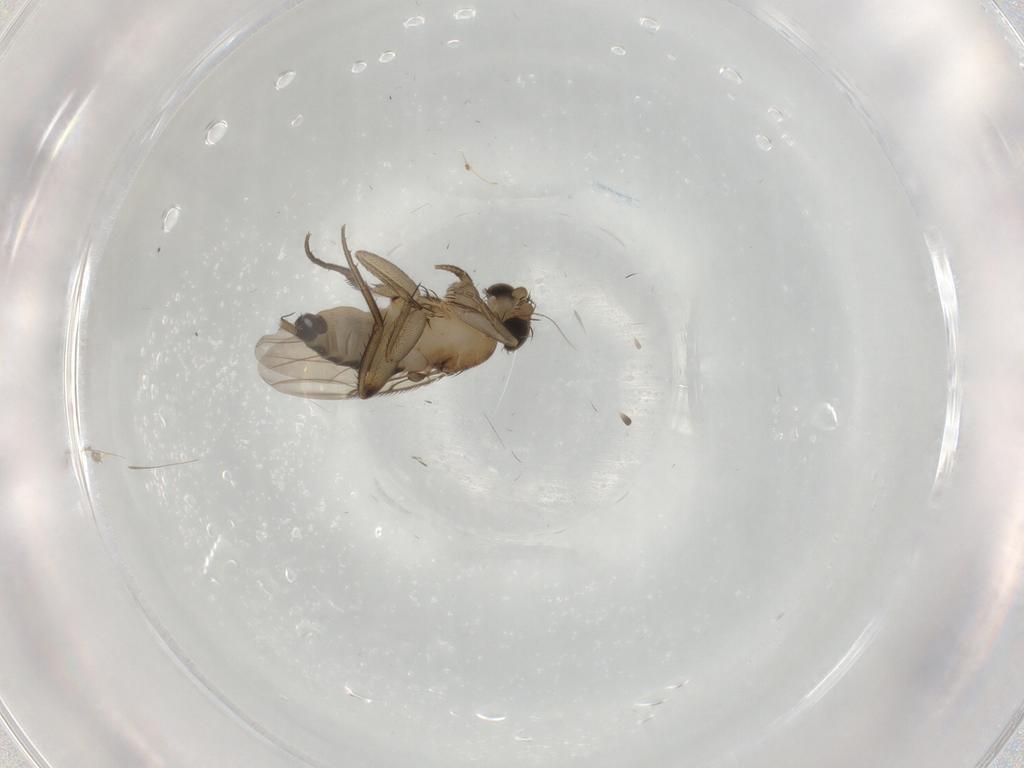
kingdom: Animalia
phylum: Arthropoda
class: Insecta
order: Diptera
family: Phoridae
